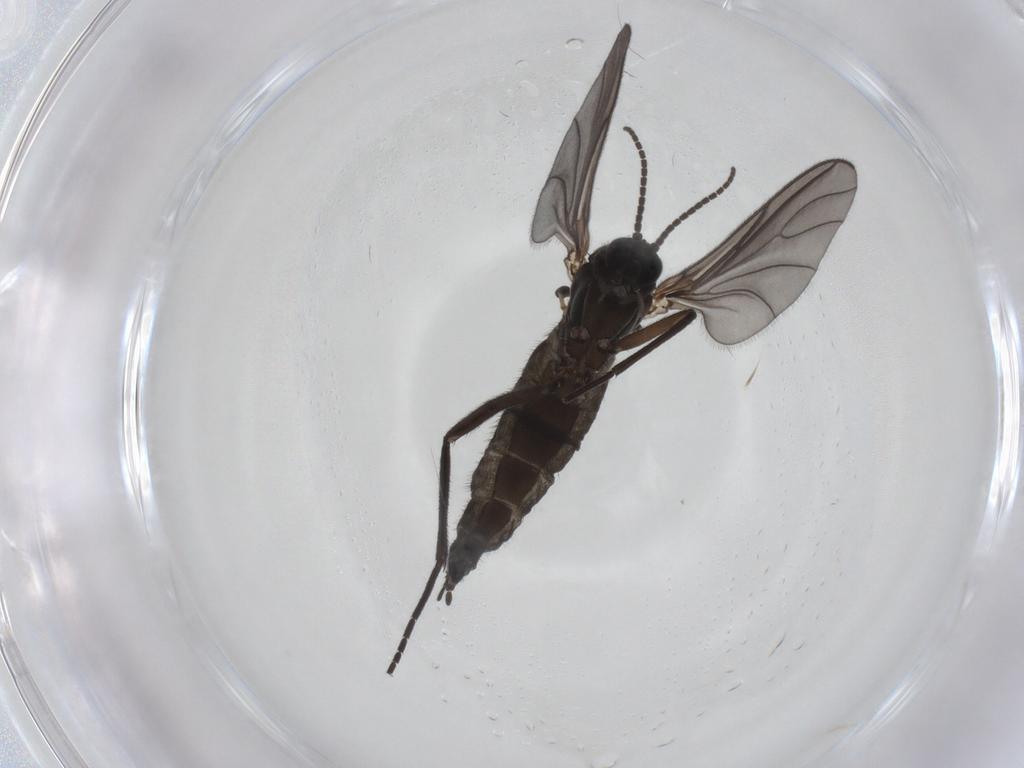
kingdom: Animalia
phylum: Arthropoda
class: Insecta
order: Diptera
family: Sciaridae
